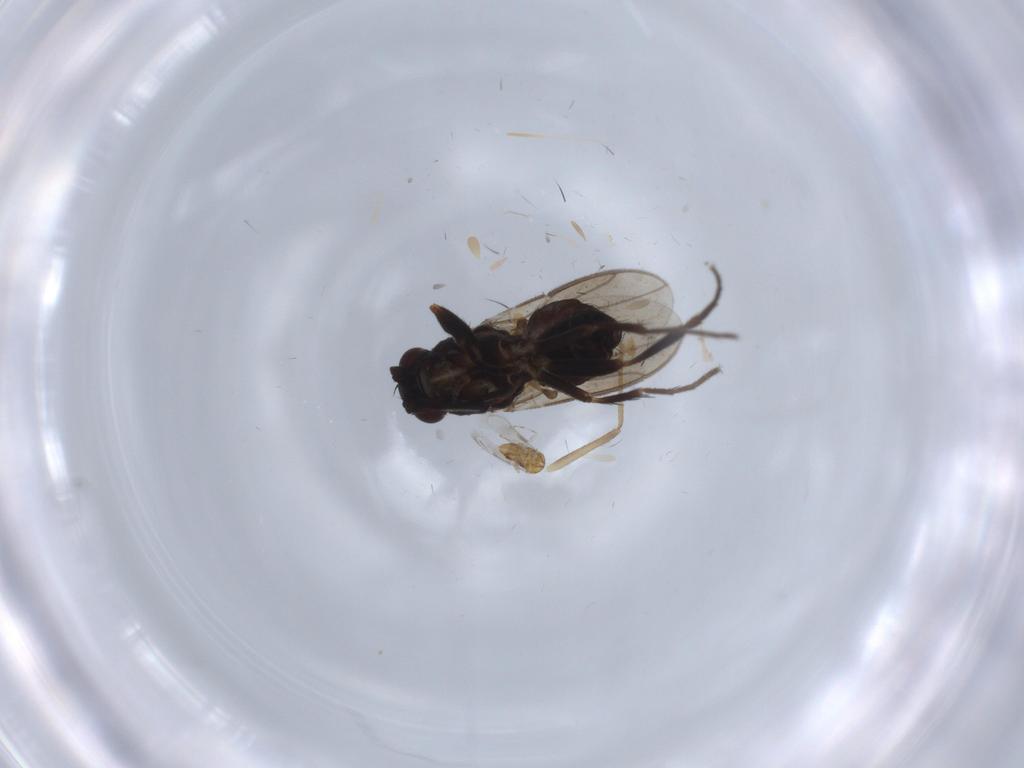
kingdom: Animalia
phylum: Arthropoda
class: Insecta
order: Diptera
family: Sphaeroceridae
